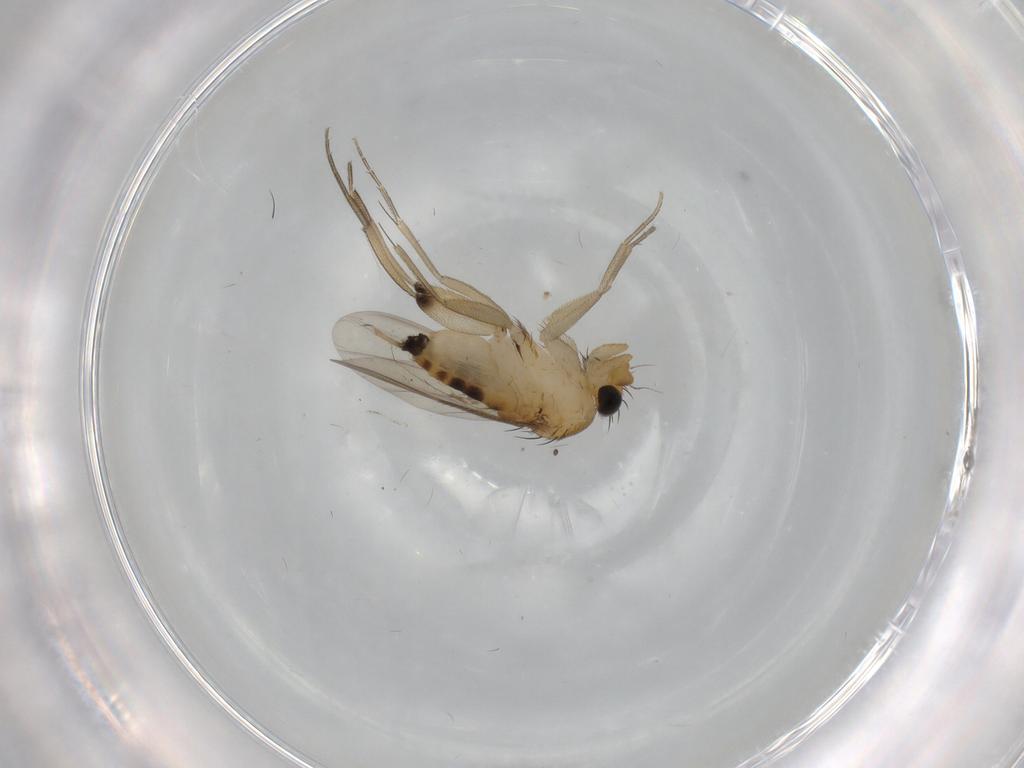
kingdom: Animalia
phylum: Arthropoda
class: Insecta
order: Diptera
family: Phoridae
